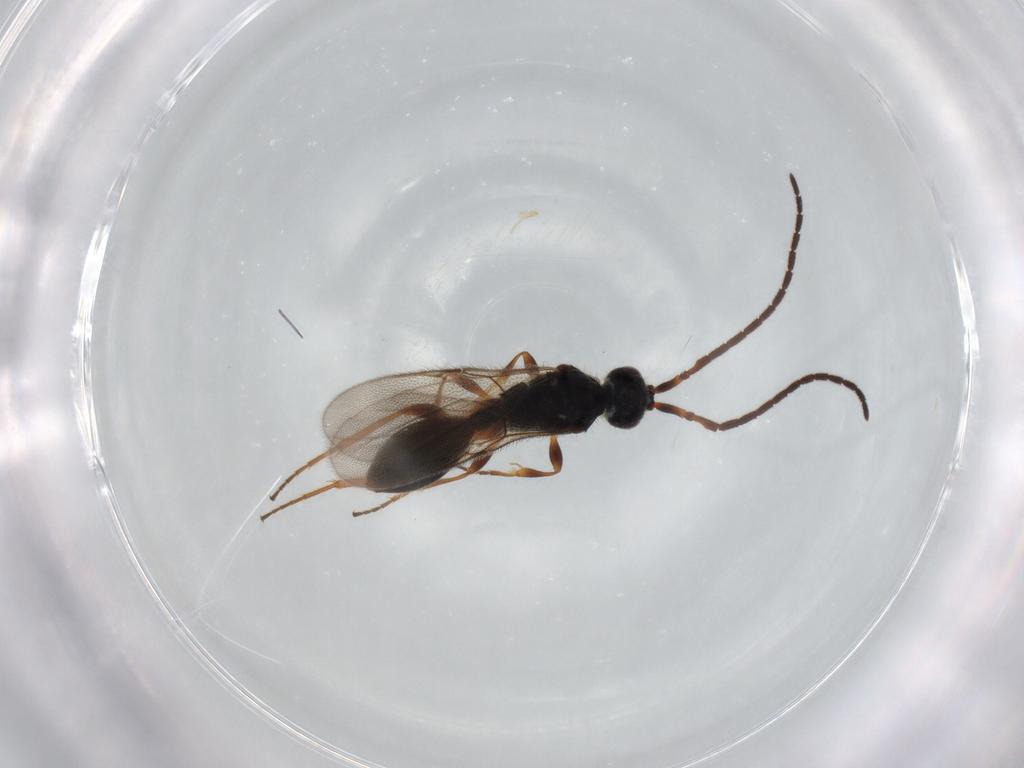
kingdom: Animalia
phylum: Arthropoda
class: Insecta
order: Hymenoptera
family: Diapriidae
